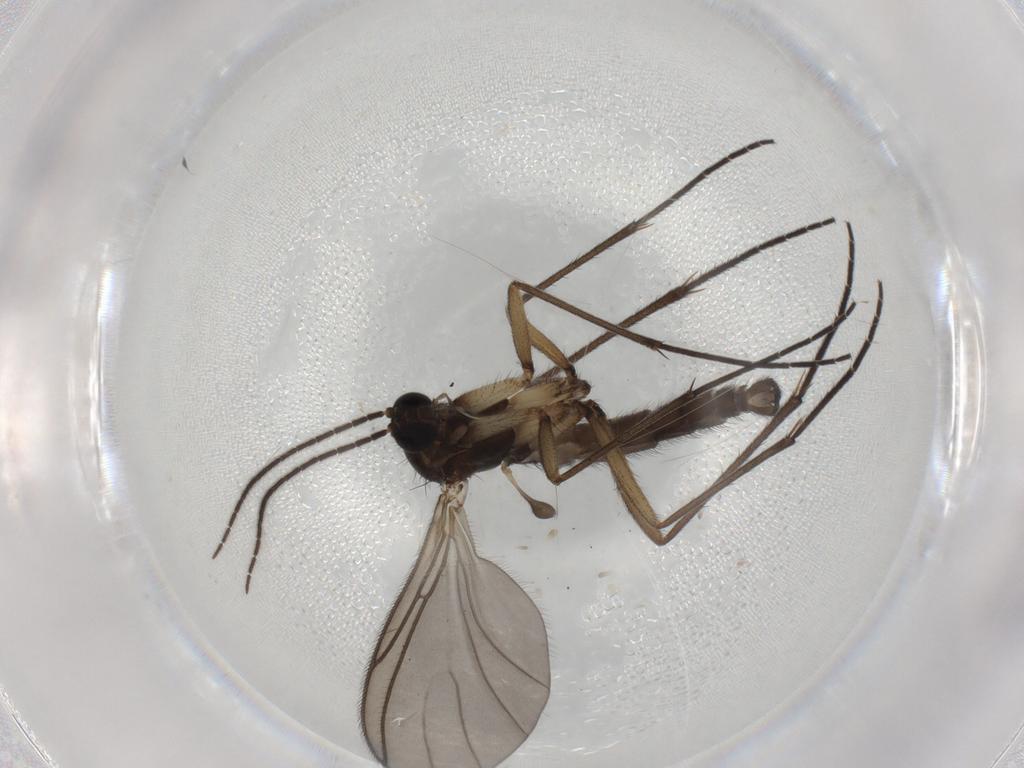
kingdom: Animalia
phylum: Arthropoda
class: Insecta
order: Diptera
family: Sciaridae
